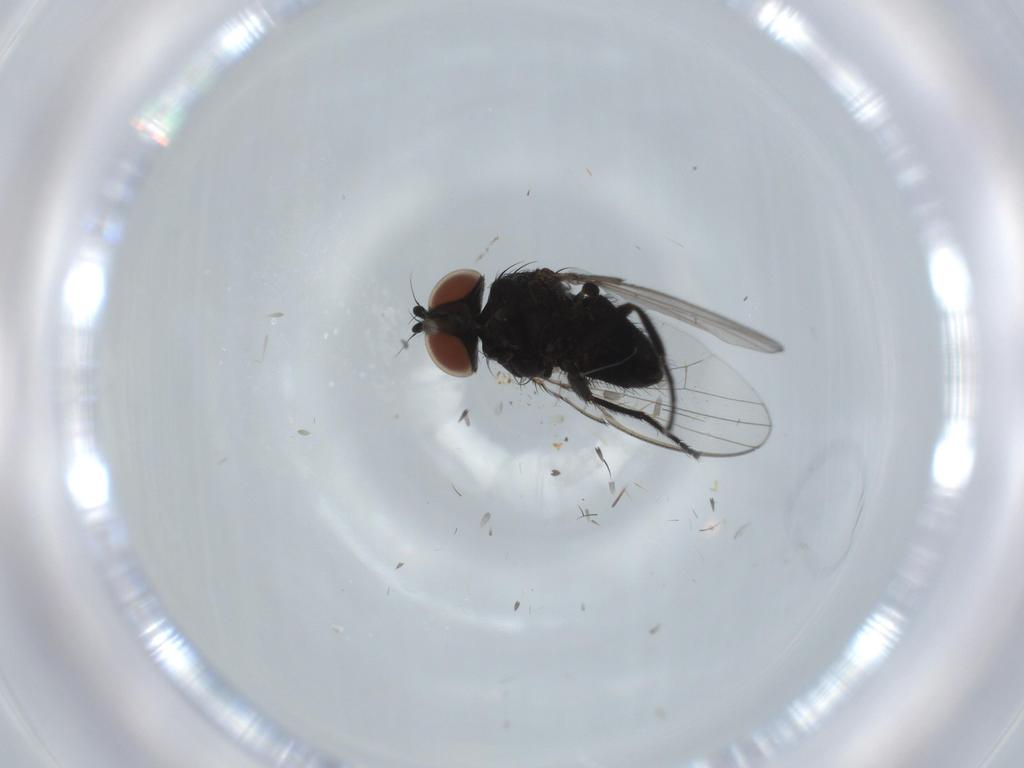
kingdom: Animalia
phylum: Arthropoda
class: Insecta
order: Diptera
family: Milichiidae
